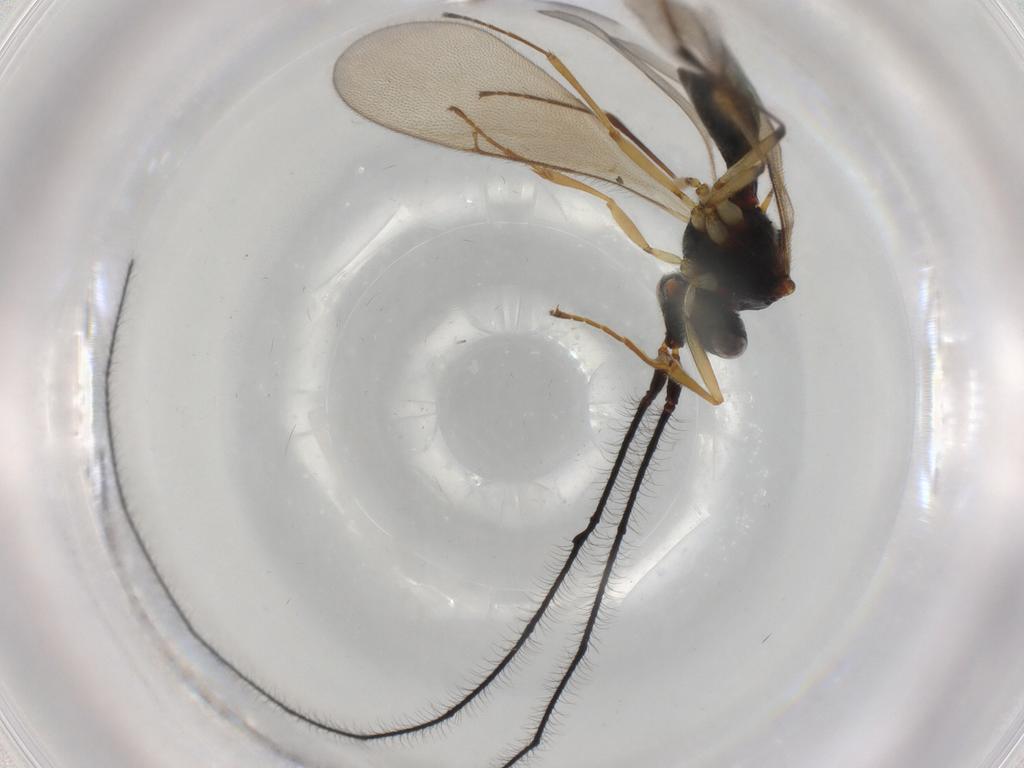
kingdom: Animalia
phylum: Arthropoda
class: Insecta
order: Hymenoptera
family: Scelionidae
